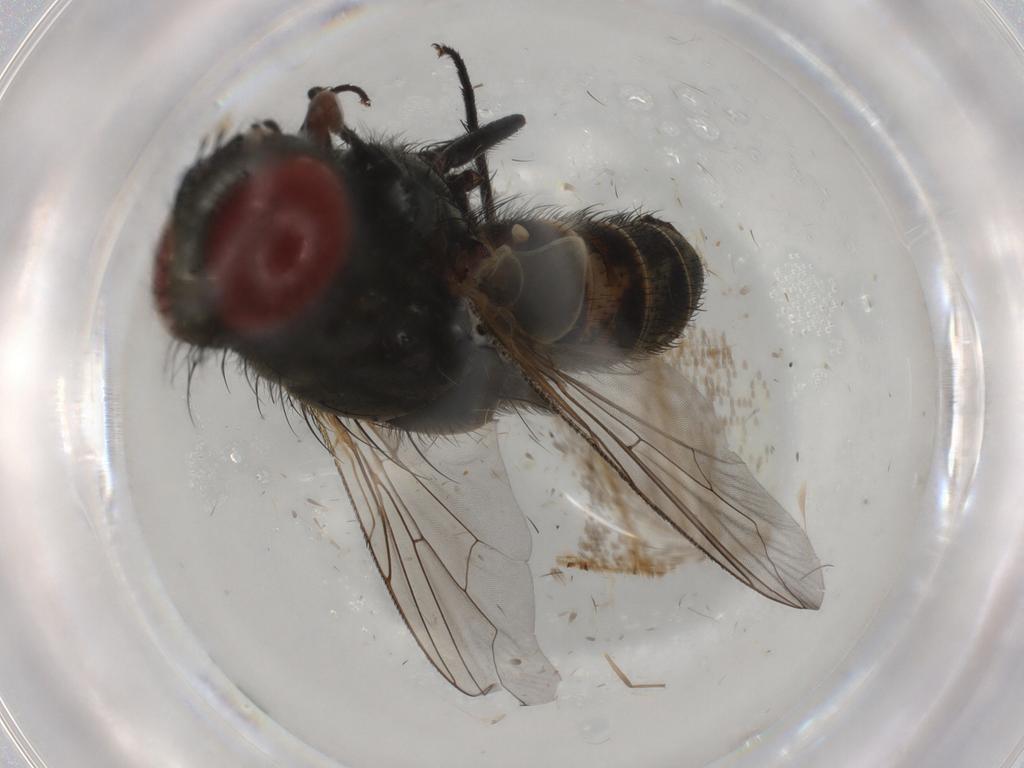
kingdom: Animalia
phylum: Arthropoda
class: Insecta
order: Diptera
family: Sarcophagidae
